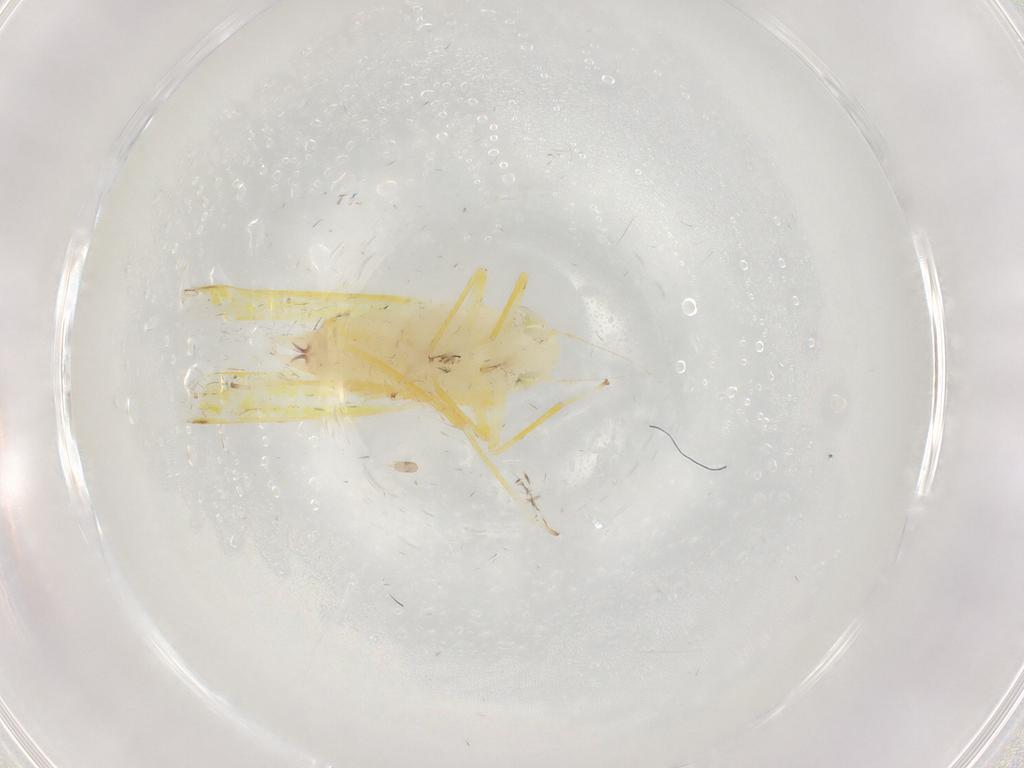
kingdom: Animalia
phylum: Arthropoda
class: Insecta
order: Hemiptera
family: Cicadellidae
